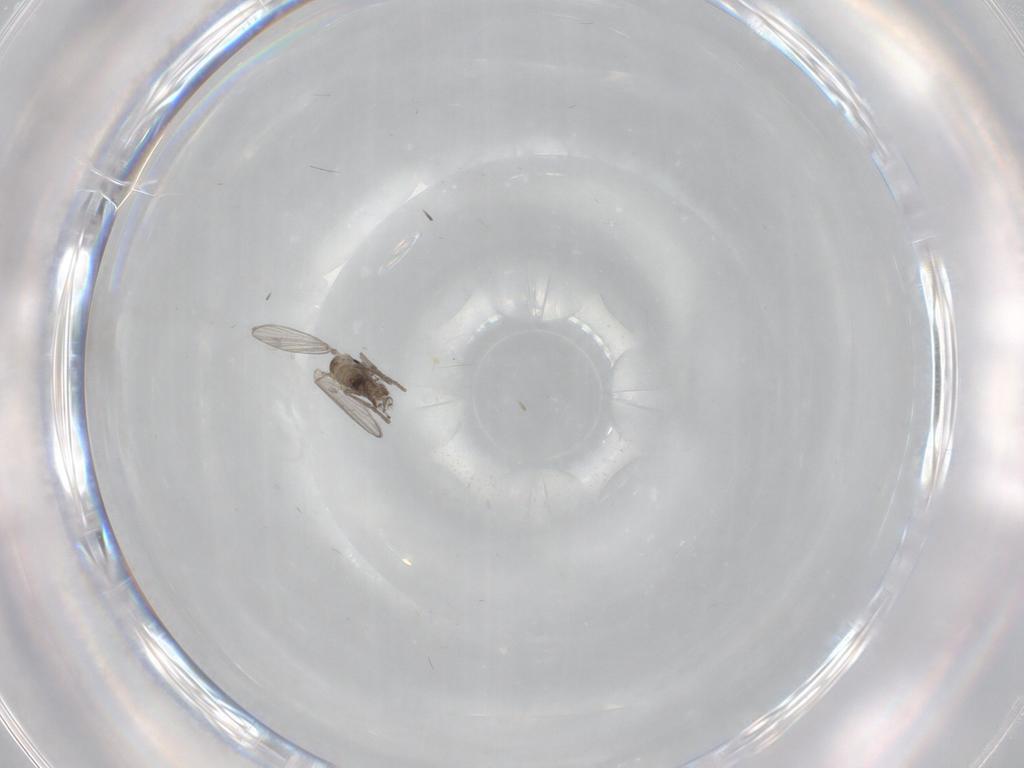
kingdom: Animalia
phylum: Arthropoda
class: Insecta
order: Diptera
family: Psychodidae
